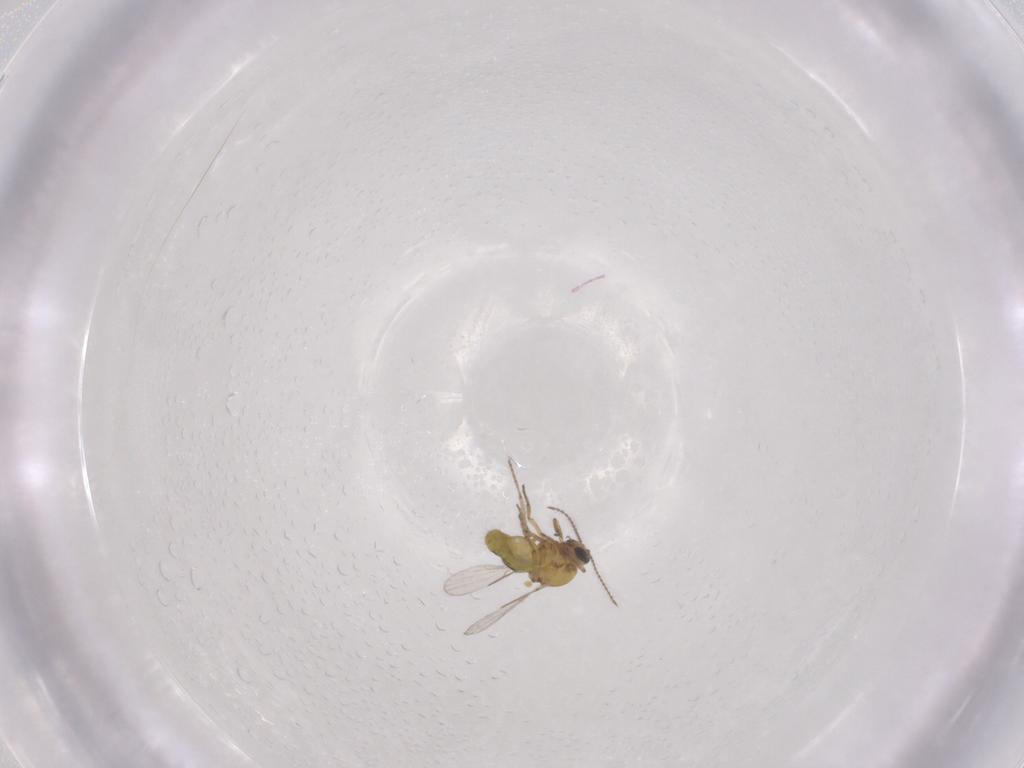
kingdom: Animalia
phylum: Arthropoda
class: Insecta
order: Diptera
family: Ceratopogonidae
